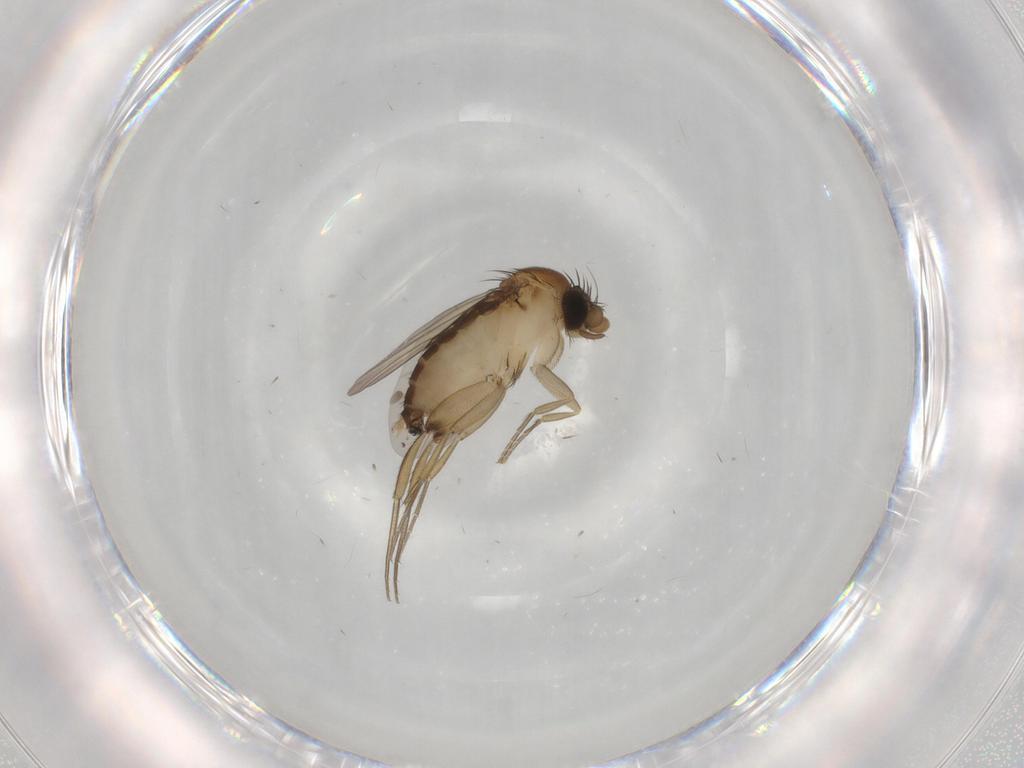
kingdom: Animalia
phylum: Arthropoda
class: Insecta
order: Diptera
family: Phoridae
